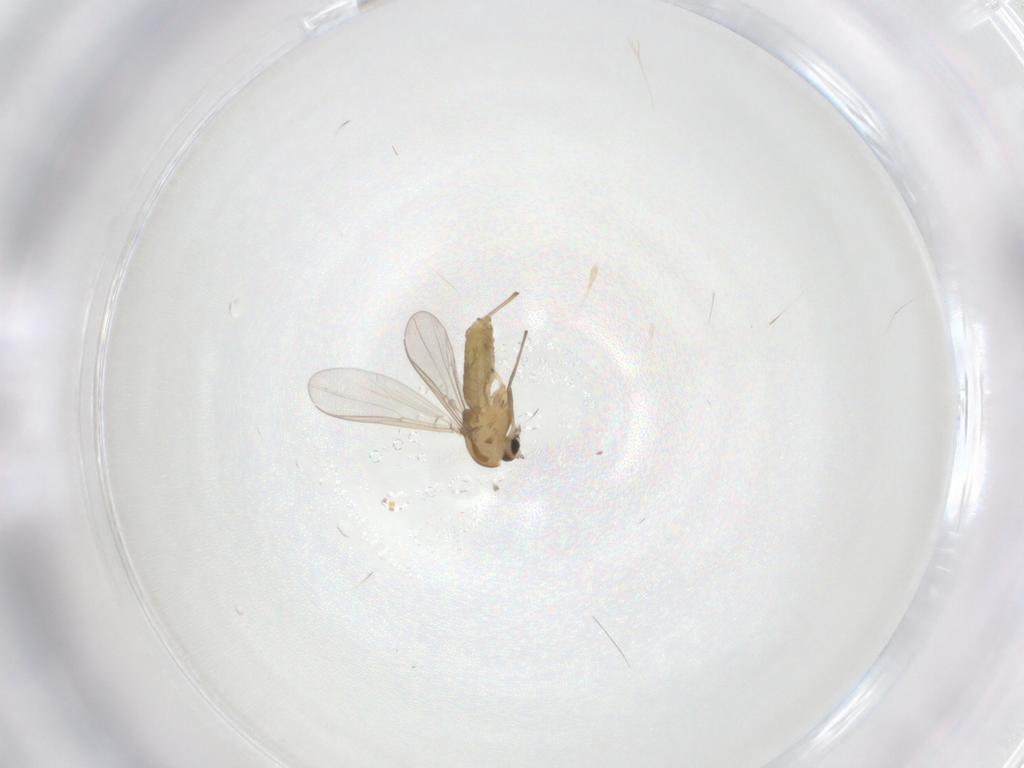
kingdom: Animalia
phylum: Arthropoda
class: Insecta
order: Diptera
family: Chironomidae
